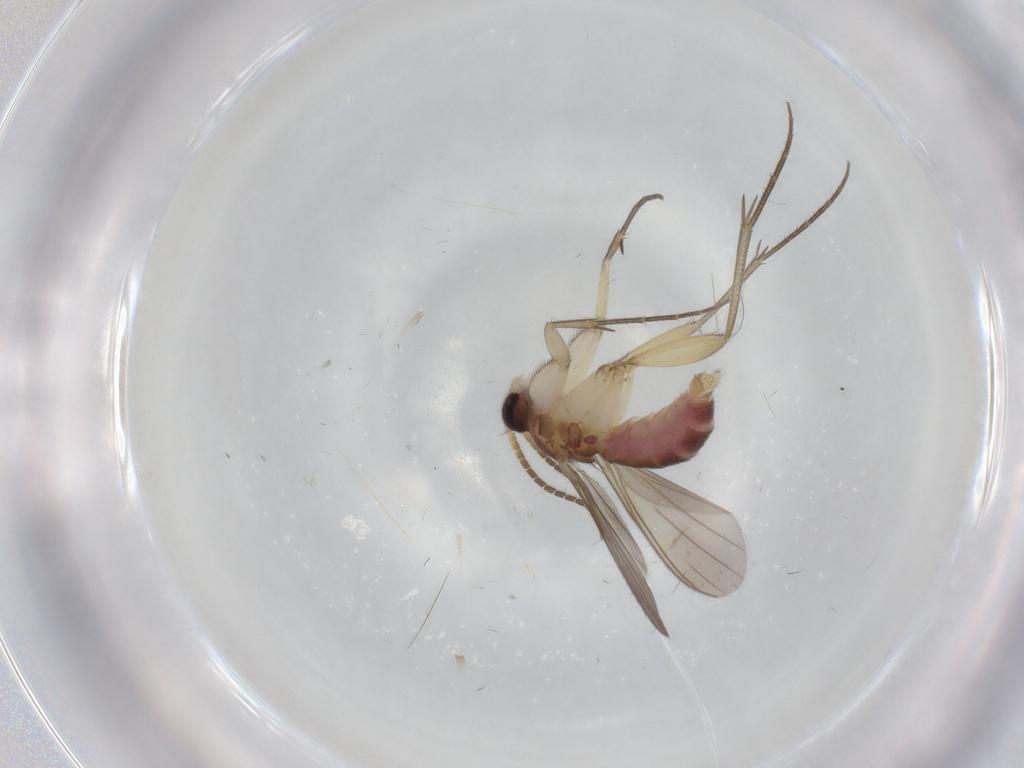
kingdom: Animalia
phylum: Arthropoda
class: Insecta
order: Diptera
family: Mycetophilidae
